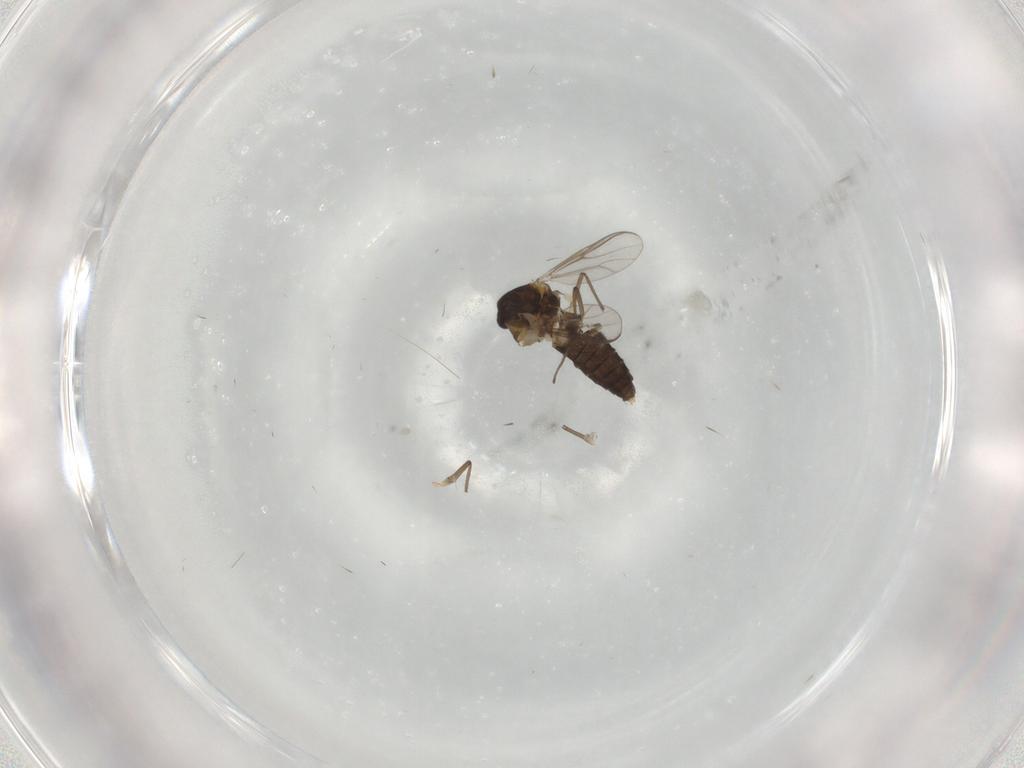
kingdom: Animalia
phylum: Arthropoda
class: Insecta
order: Diptera
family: Chironomidae
